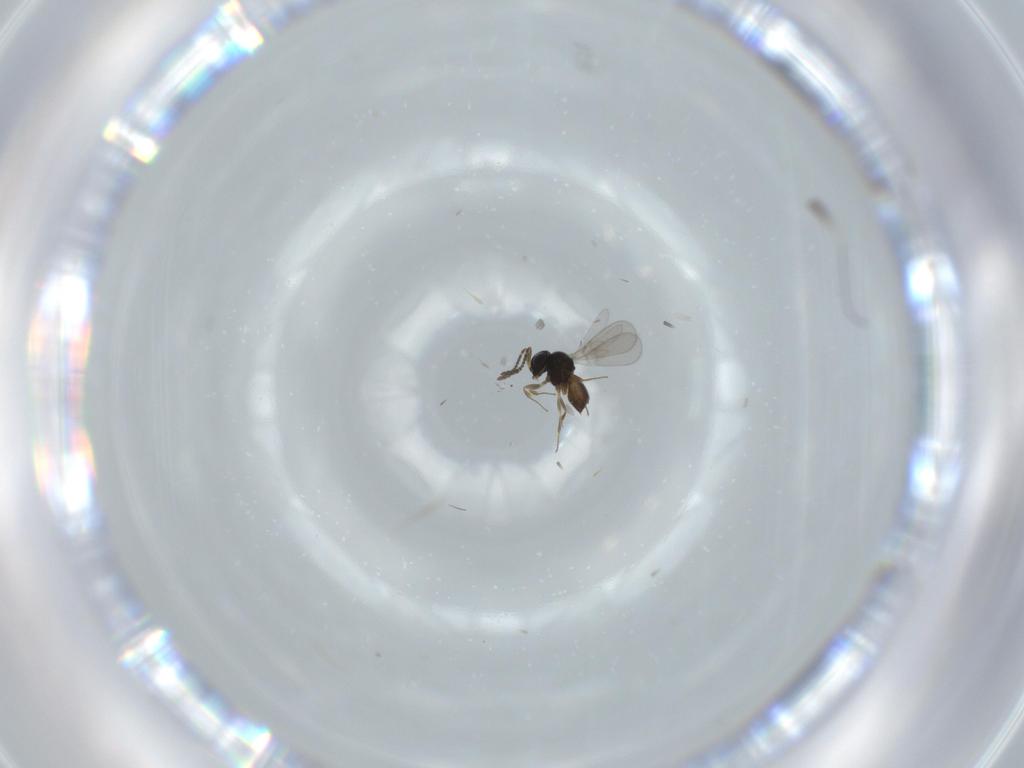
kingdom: Animalia
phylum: Arthropoda
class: Insecta
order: Hymenoptera
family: Scelionidae
